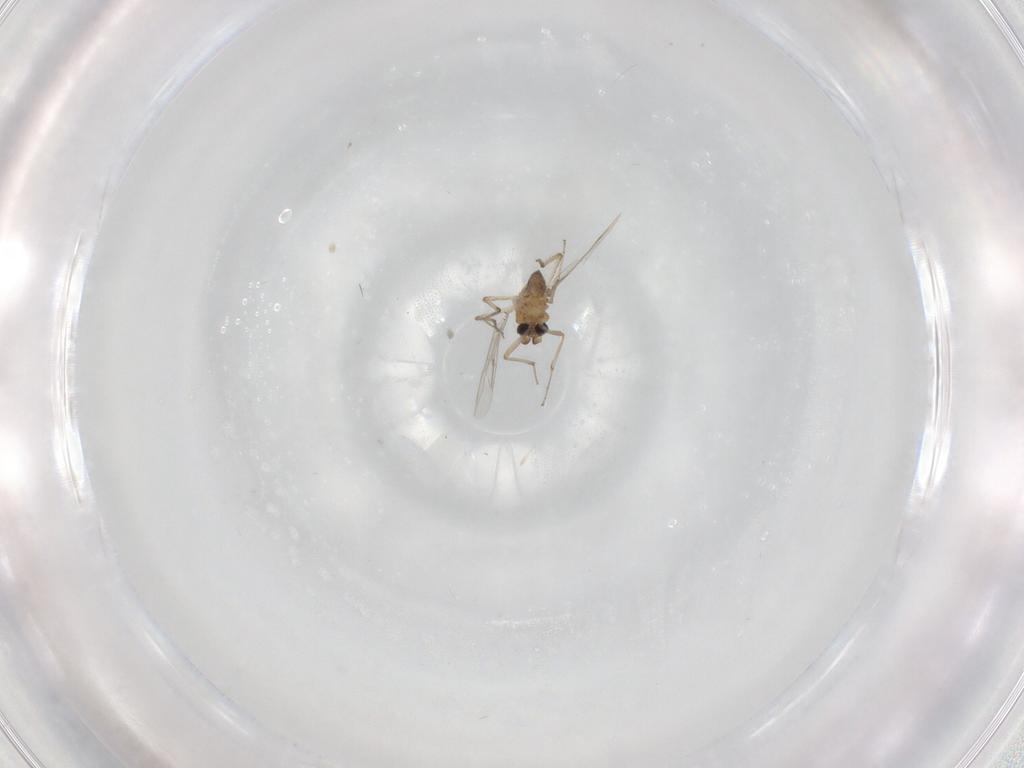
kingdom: Animalia
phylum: Arthropoda
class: Insecta
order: Diptera
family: Ceratopogonidae
